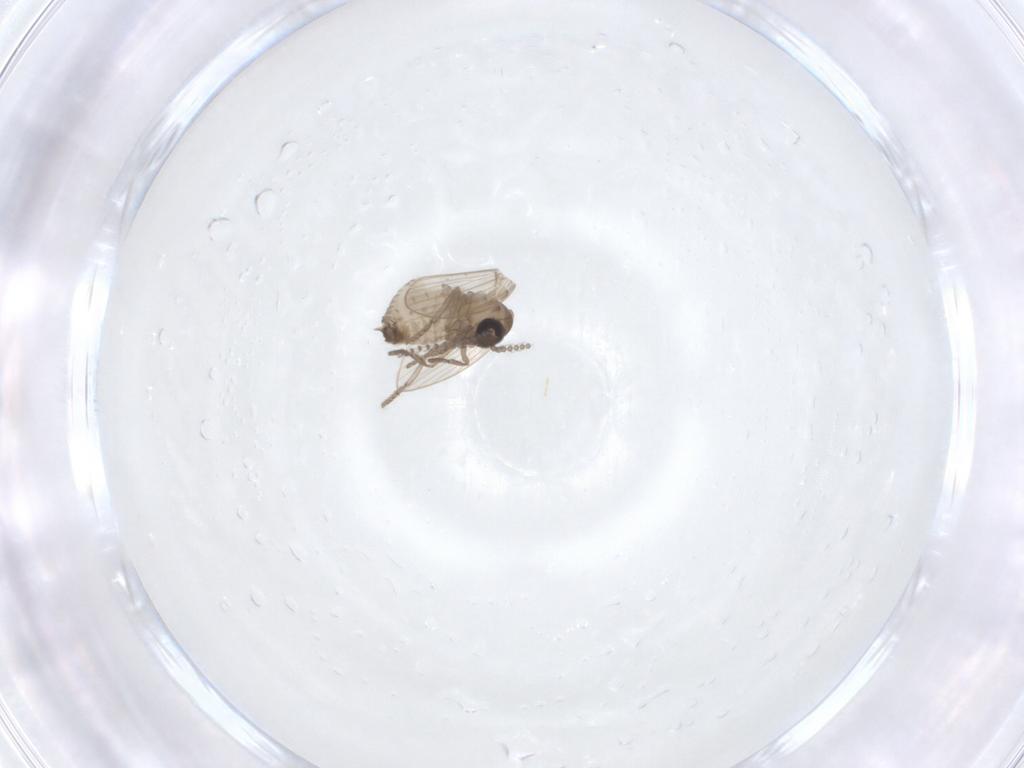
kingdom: Animalia
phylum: Arthropoda
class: Insecta
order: Diptera
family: Psychodidae
